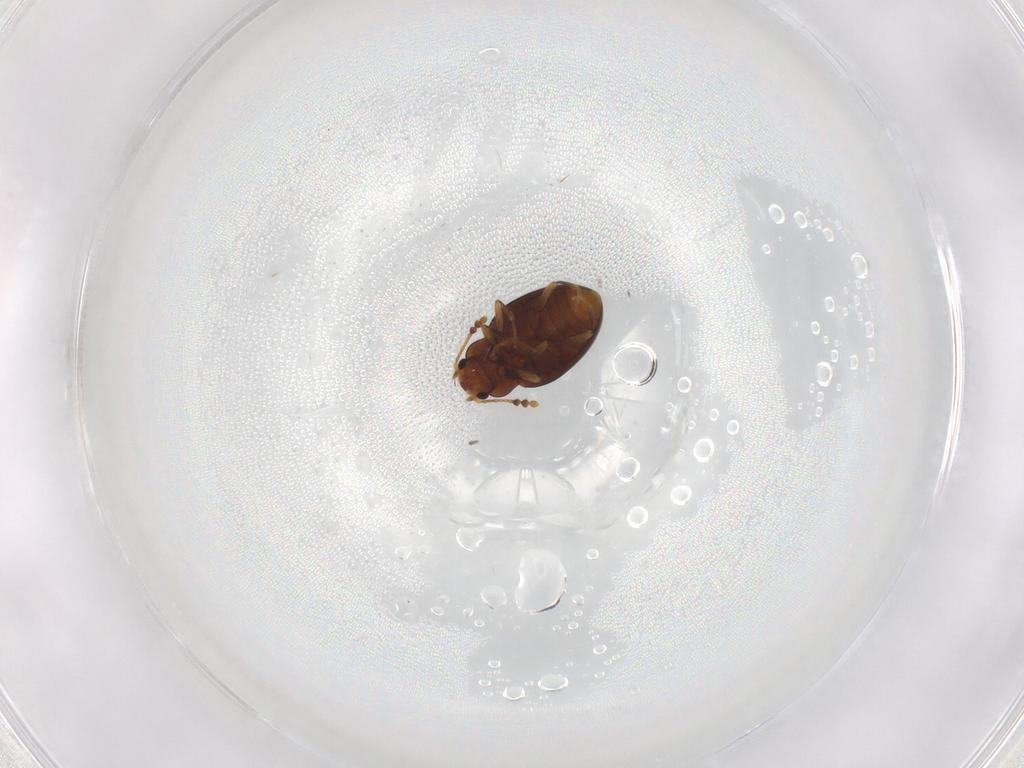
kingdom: Animalia
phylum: Arthropoda
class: Insecta
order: Coleoptera
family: Erotylidae
